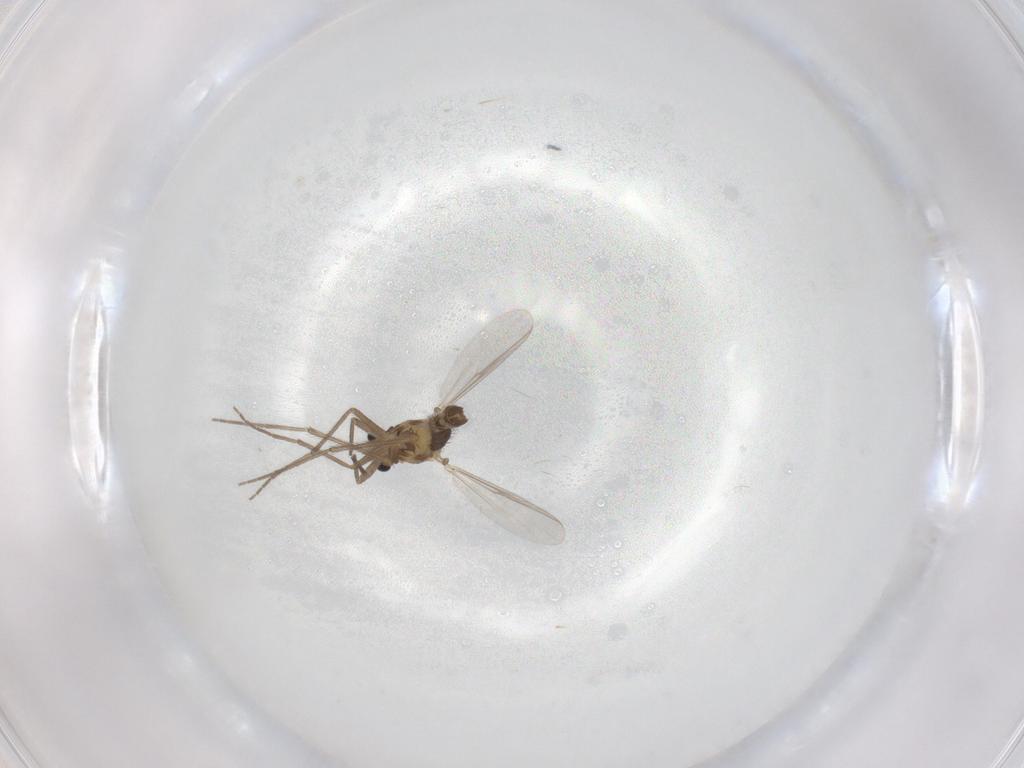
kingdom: Animalia
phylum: Arthropoda
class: Insecta
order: Diptera
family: Chironomidae
